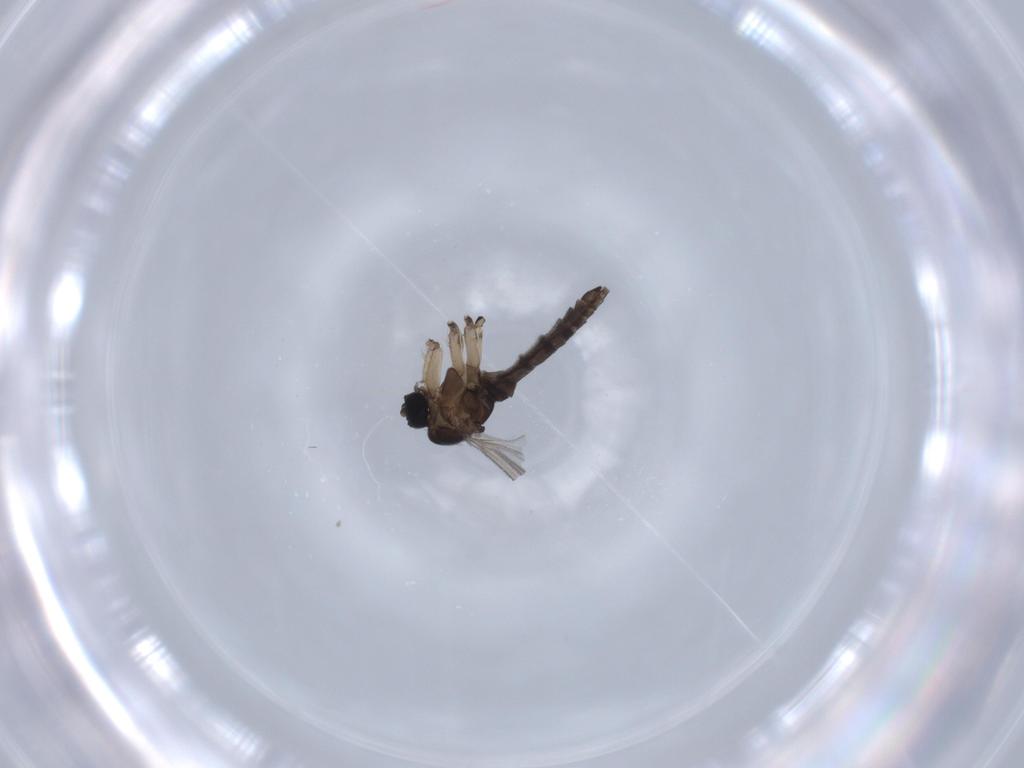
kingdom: Animalia
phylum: Arthropoda
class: Insecta
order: Diptera
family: Sciaridae
